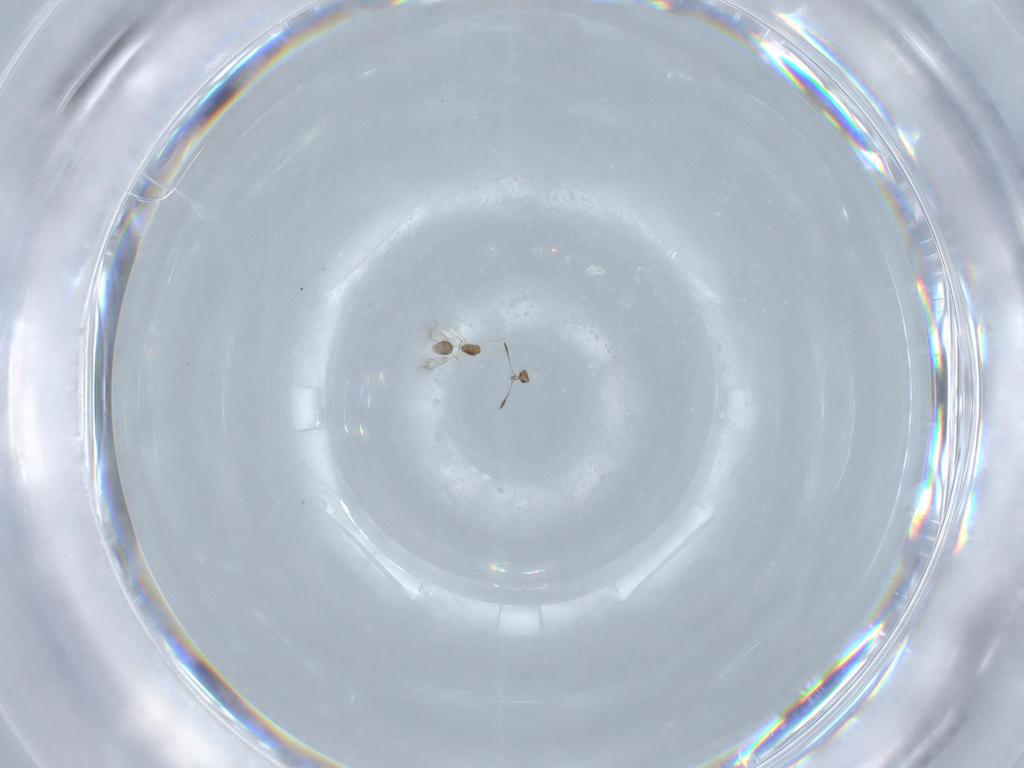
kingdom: Animalia
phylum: Arthropoda
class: Insecta
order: Hymenoptera
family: Mymarommatidae
